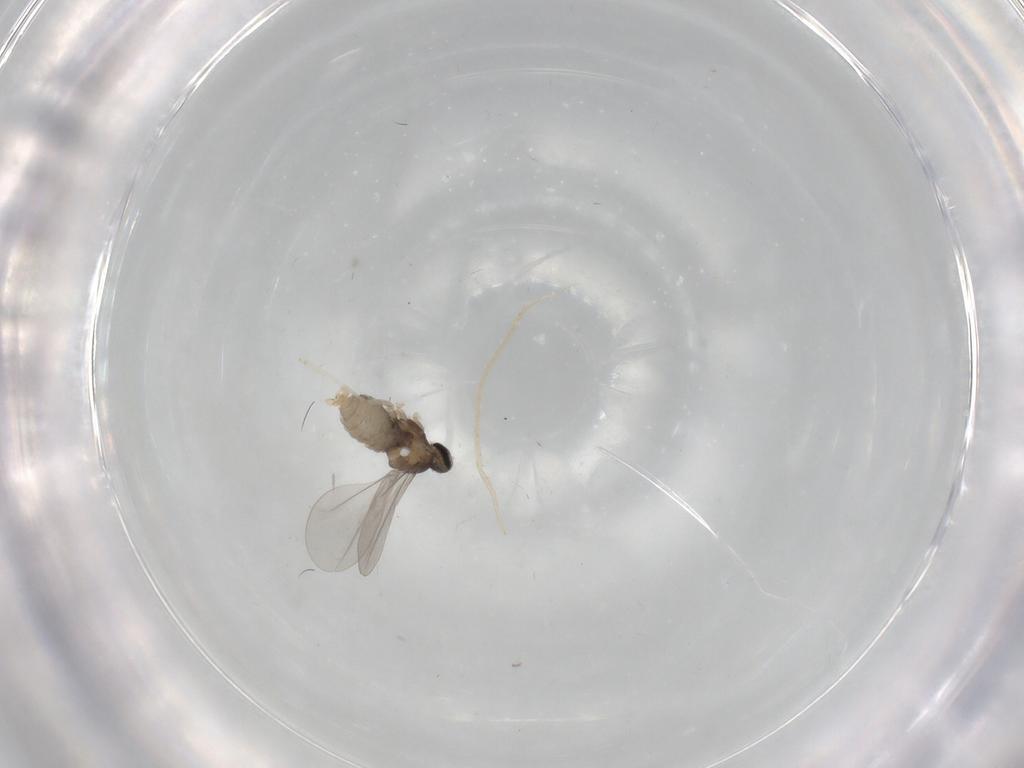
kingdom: Animalia
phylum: Arthropoda
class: Insecta
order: Diptera
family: Cecidomyiidae
